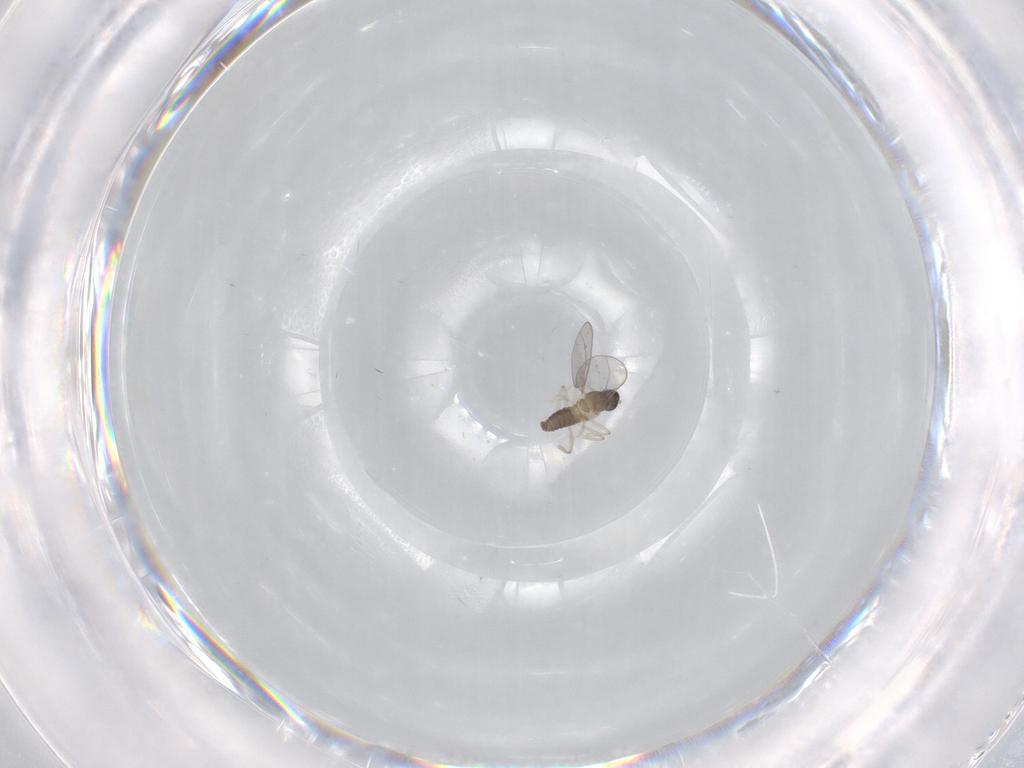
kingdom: Animalia
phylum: Arthropoda
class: Insecta
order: Diptera
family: Cecidomyiidae
